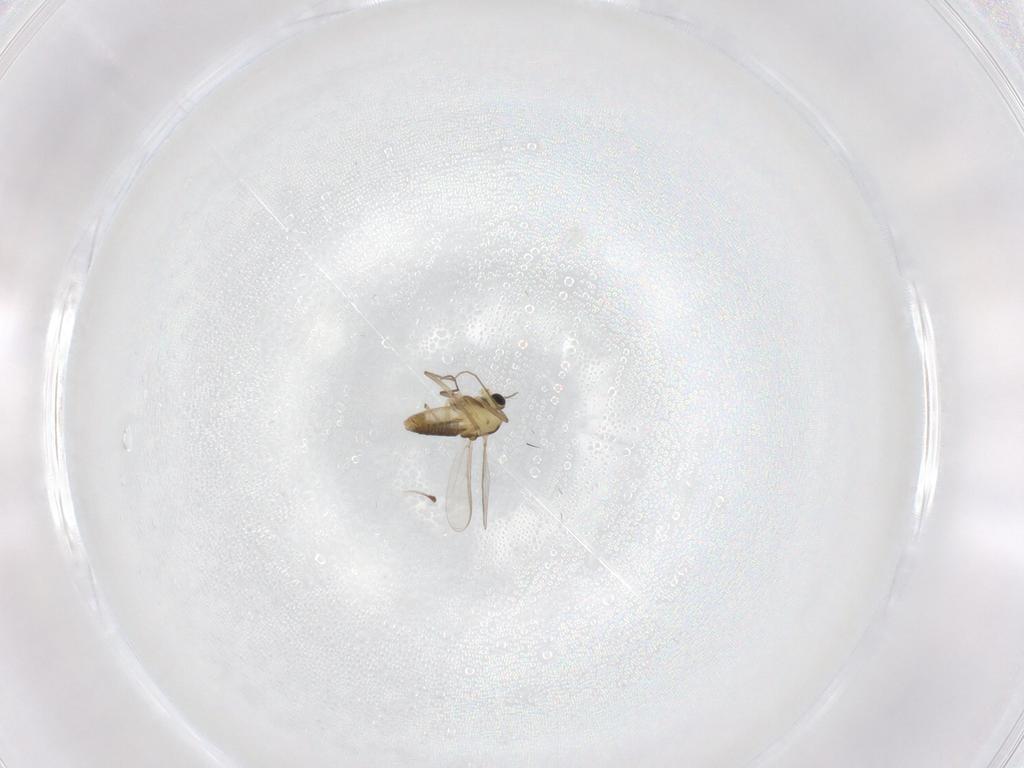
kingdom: Animalia
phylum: Arthropoda
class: Insecta
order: Diptera
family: Chironomidae
